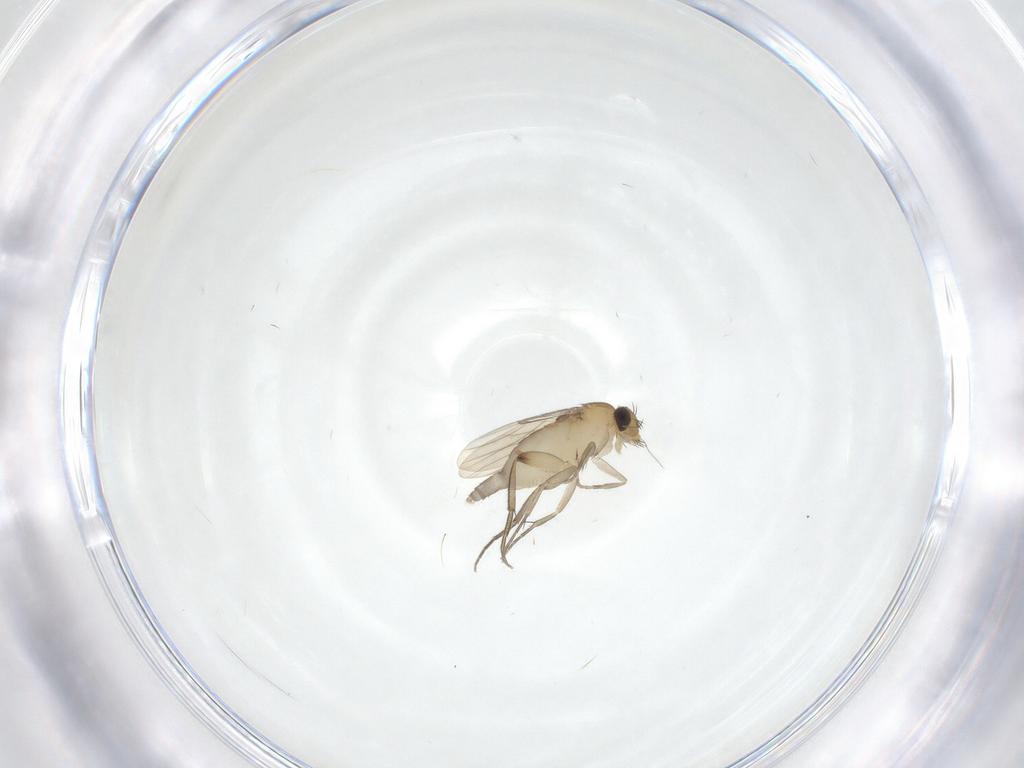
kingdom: Animalia
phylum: Arthropoda
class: Insecta
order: Diptera
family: Phoridae
